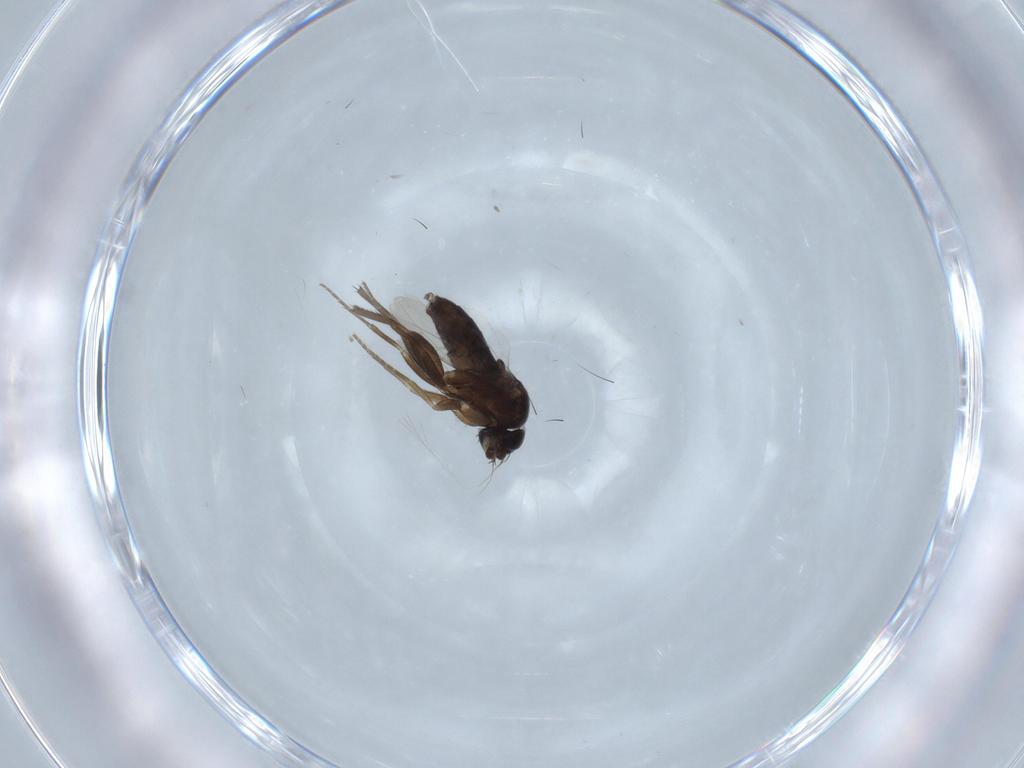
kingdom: Animalia
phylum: Arthropoda
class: Insecta
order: Diptera
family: Phoridae
